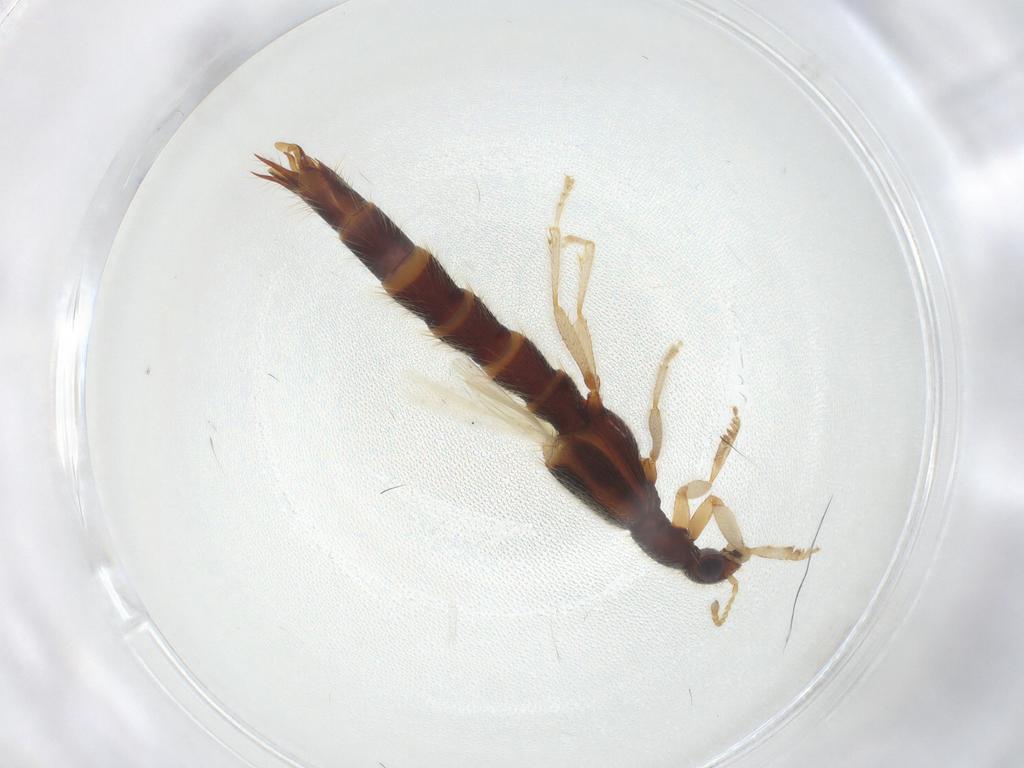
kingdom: Animalia
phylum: Arthropoda
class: Insecta
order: Coleoptera
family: Staphylinidae
